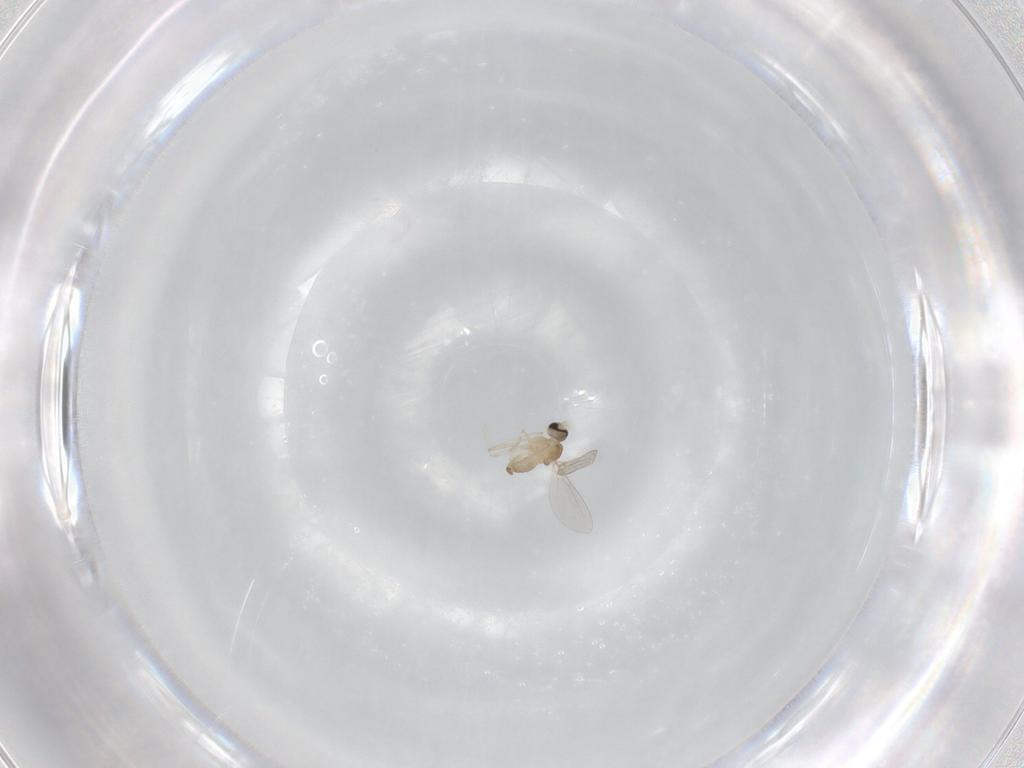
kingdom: Animalia
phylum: Arthropoda
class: Insecta
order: Diptera
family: Sciaridae
